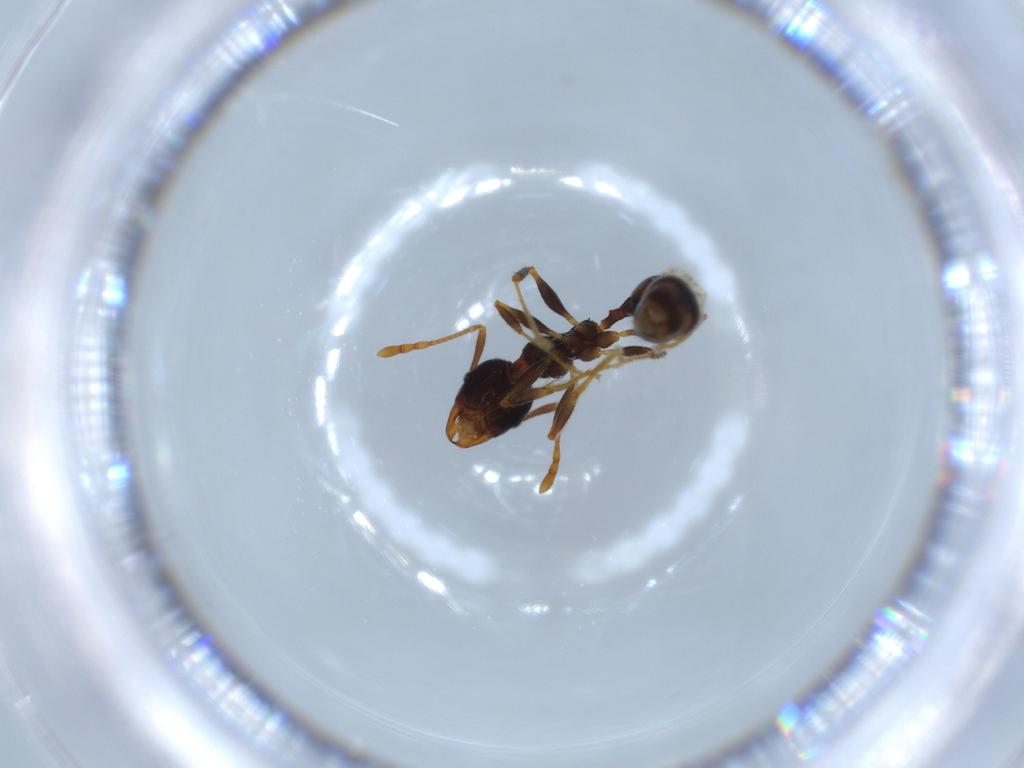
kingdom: Animalia
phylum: Arthropoda
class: Insecta
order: Hymenoptera
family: Formicidae
